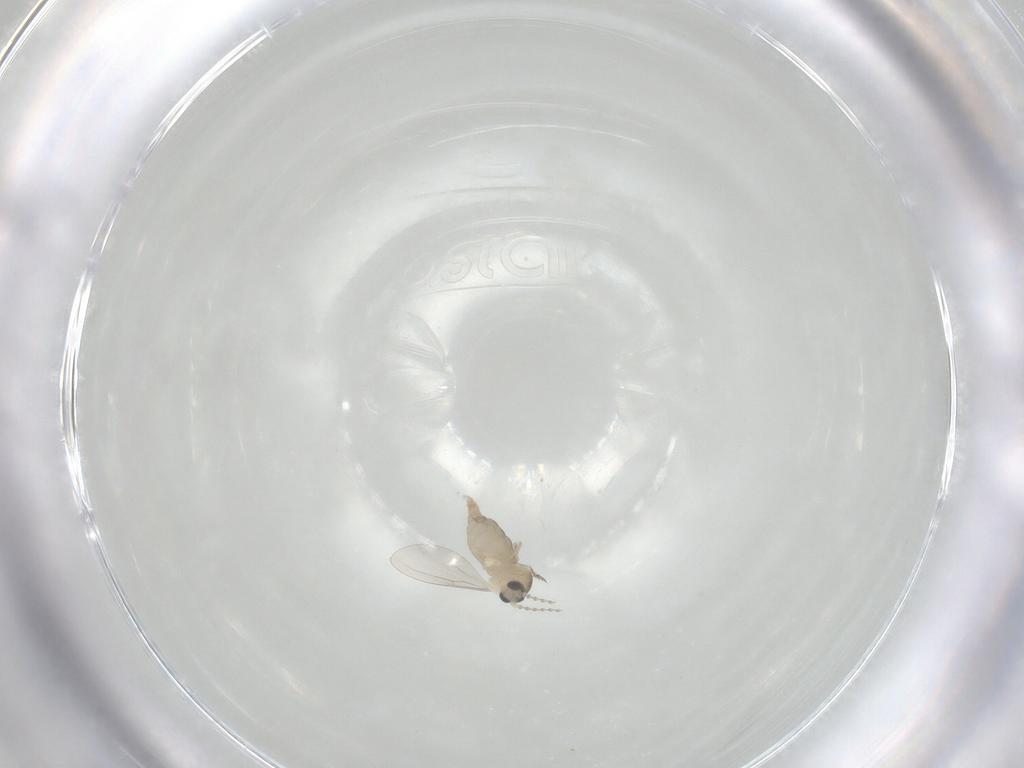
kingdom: Animalia
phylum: Arthropoda
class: Insecta
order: Diptera
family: Cecidomyiidae
